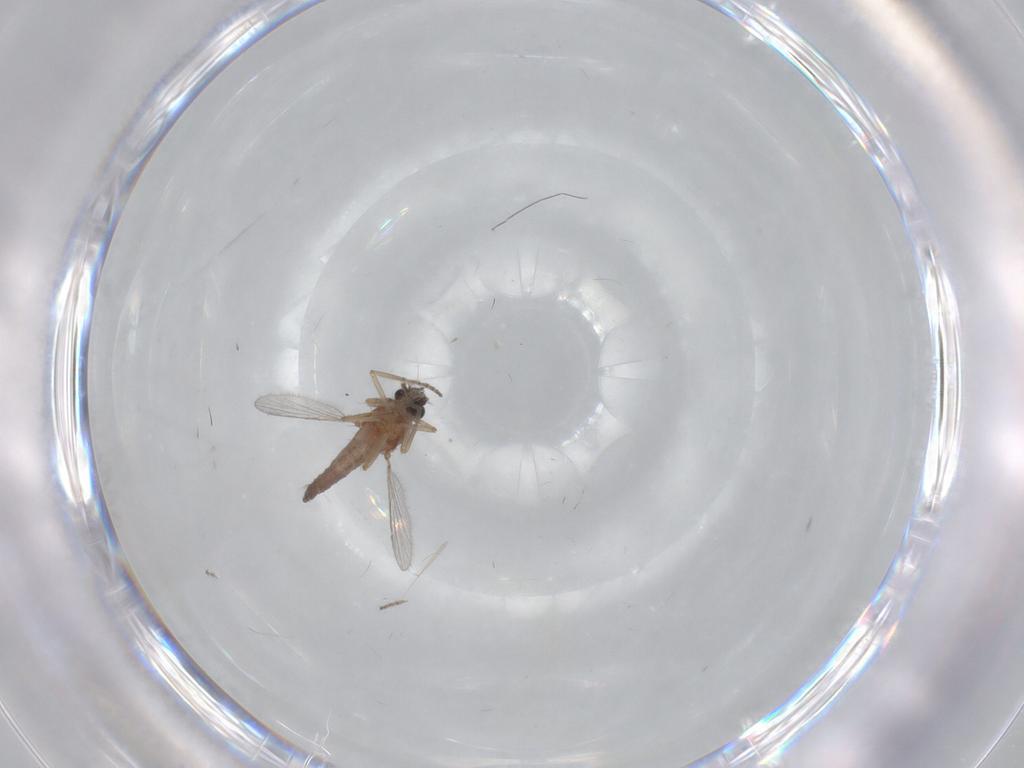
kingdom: Animalia
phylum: Arthropoda
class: Insecta
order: Diptera
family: Ceratopogonidae
